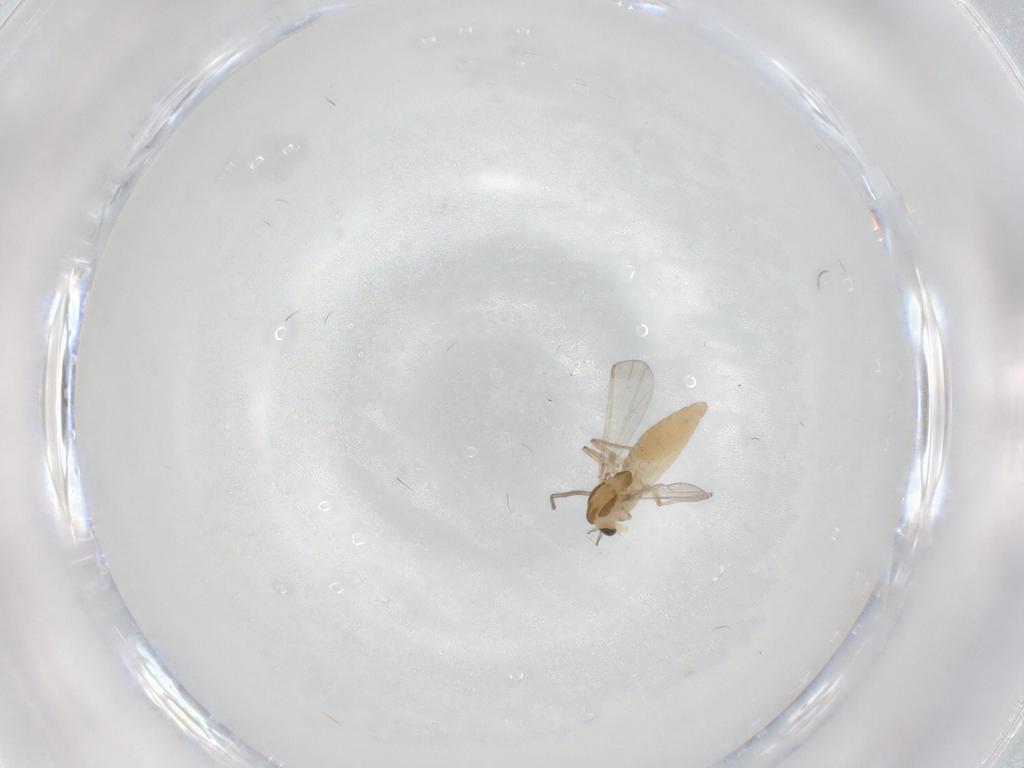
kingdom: Animalia
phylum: Arthropoda
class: Insecta
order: Diptera
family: Chironomidae
